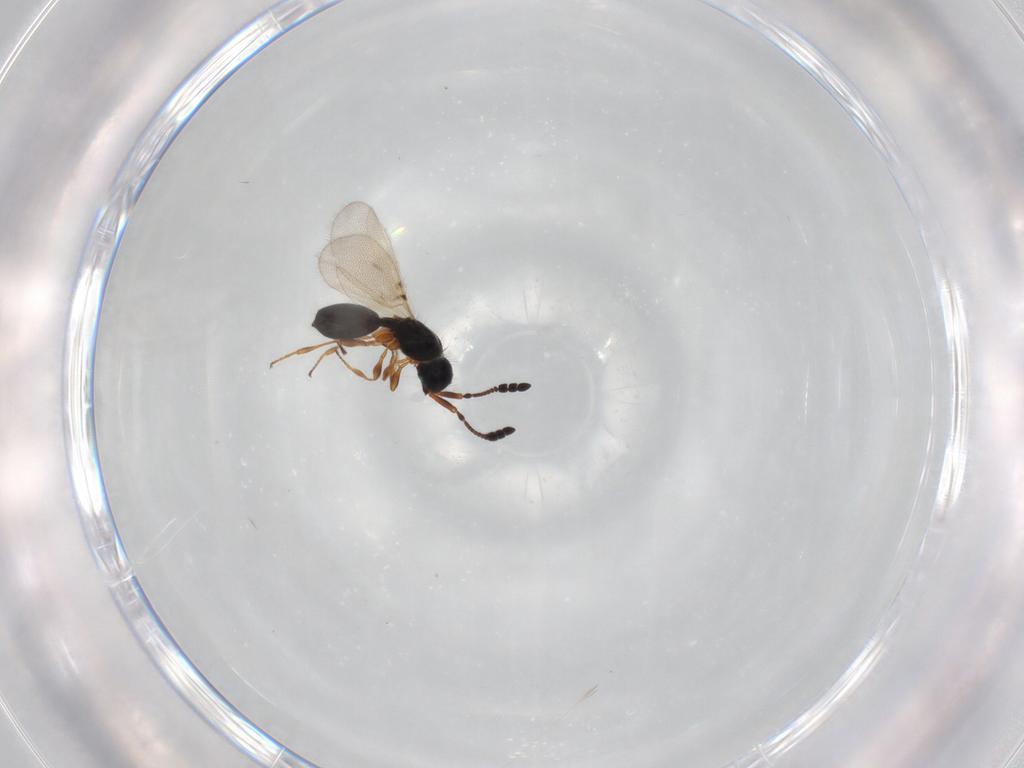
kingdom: Animalia
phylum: Arthropoda
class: Insecta
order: Hymenoptera
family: Diapriidae
